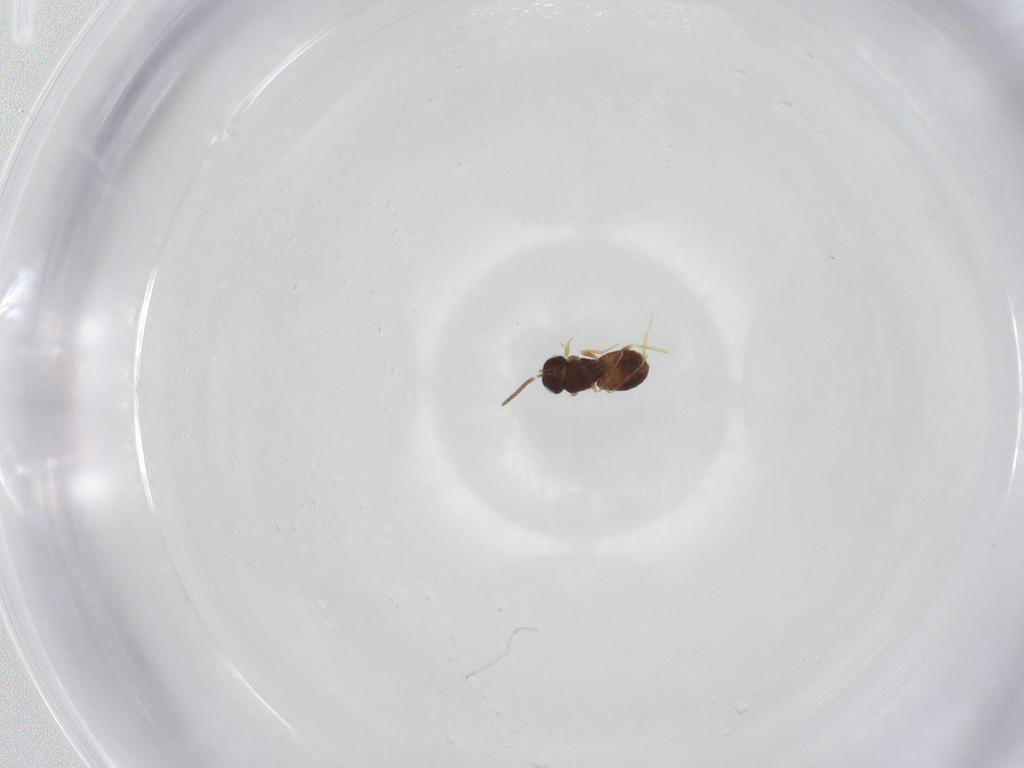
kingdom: Animalia
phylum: Arthropoda
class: Insecta
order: Hymenoptera
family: Scelionidae
